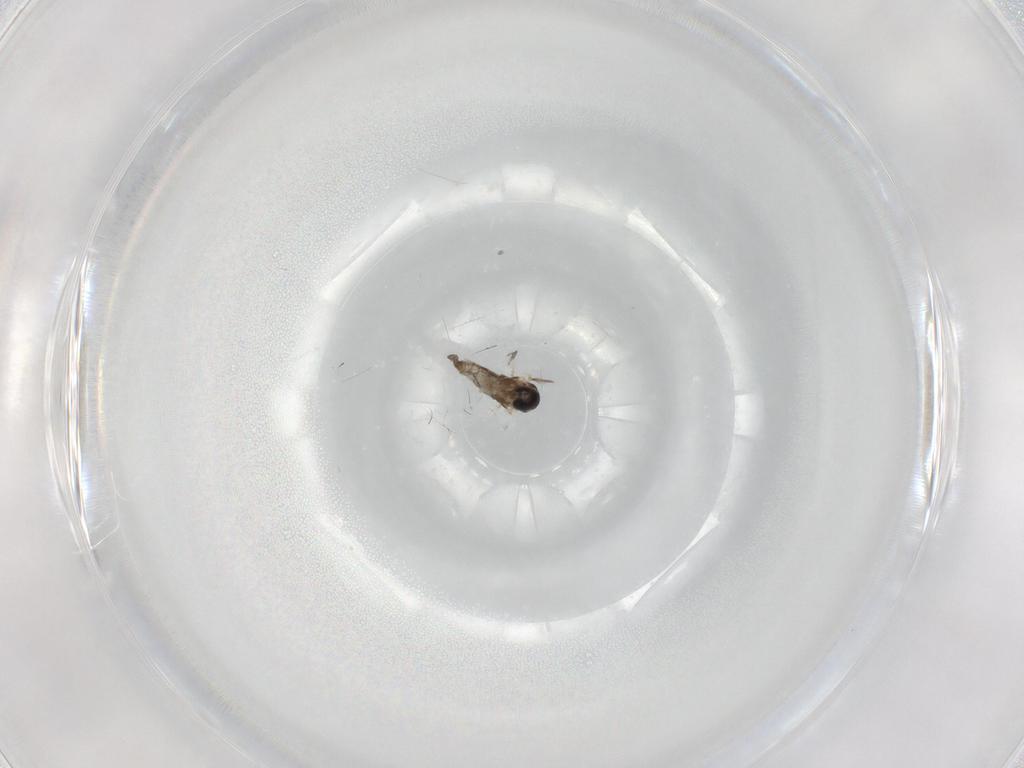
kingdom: Animalia
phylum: Arthropoda
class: Insecta
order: Diptera
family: Cecidomyiidae
